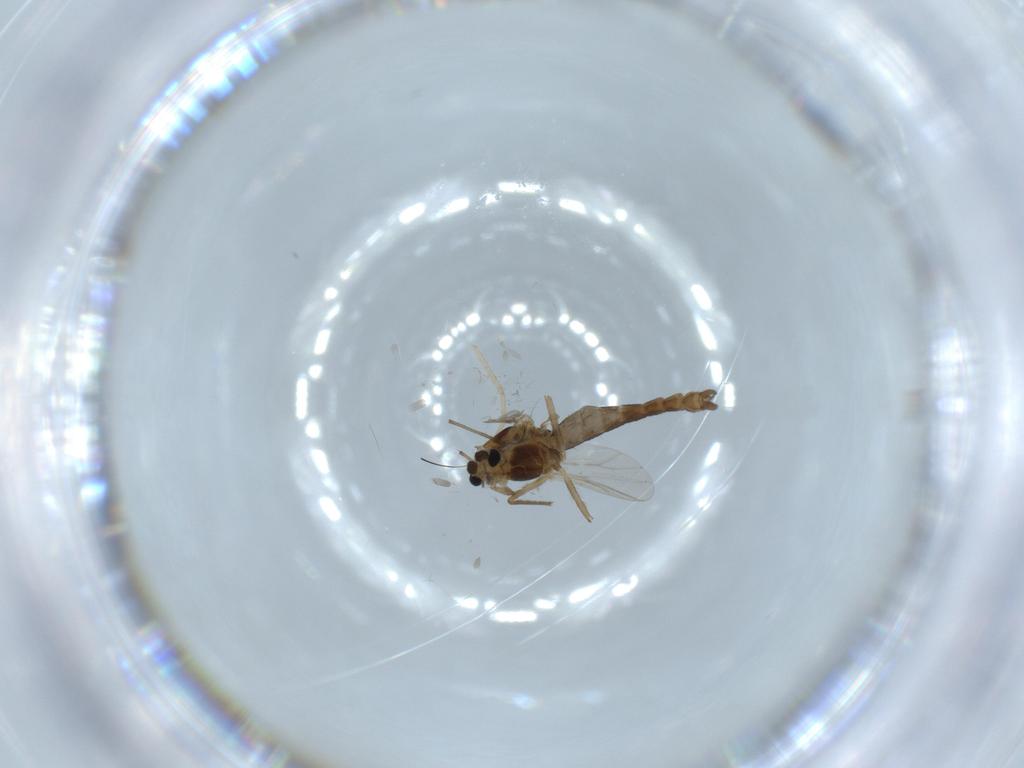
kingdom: Animalia
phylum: Arthropoda
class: Insecta
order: Diptera
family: Chironomidae
